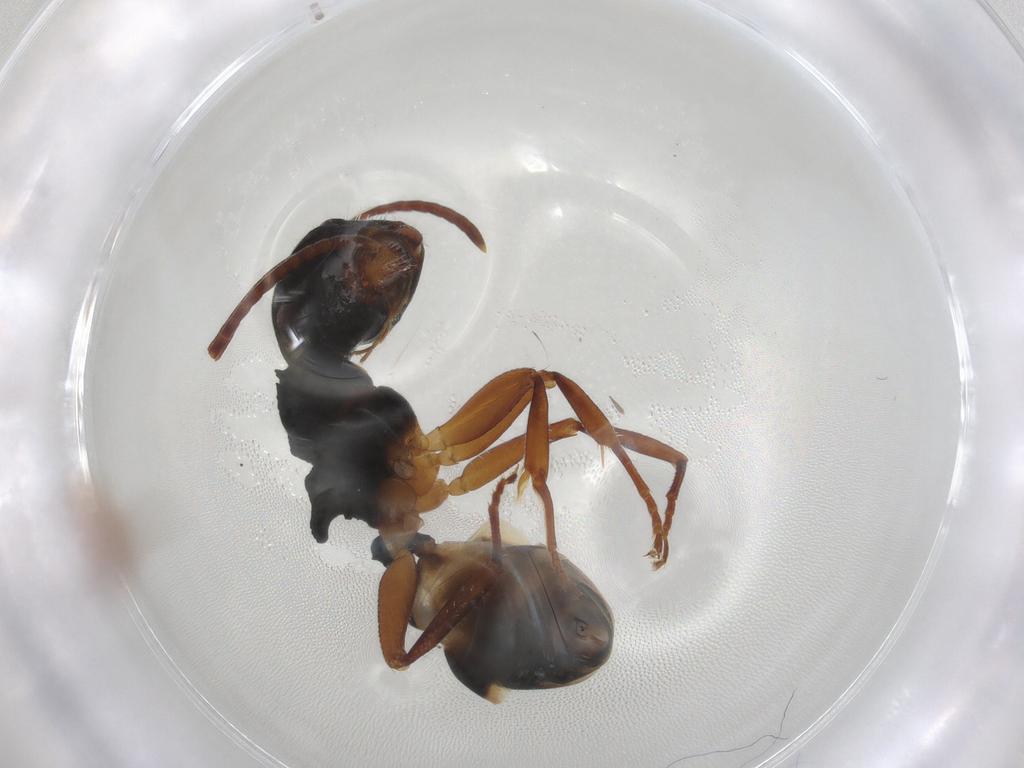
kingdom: Animalia
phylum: Arthropoda
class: Insecta
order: Hymenoptera
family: Formicidae
